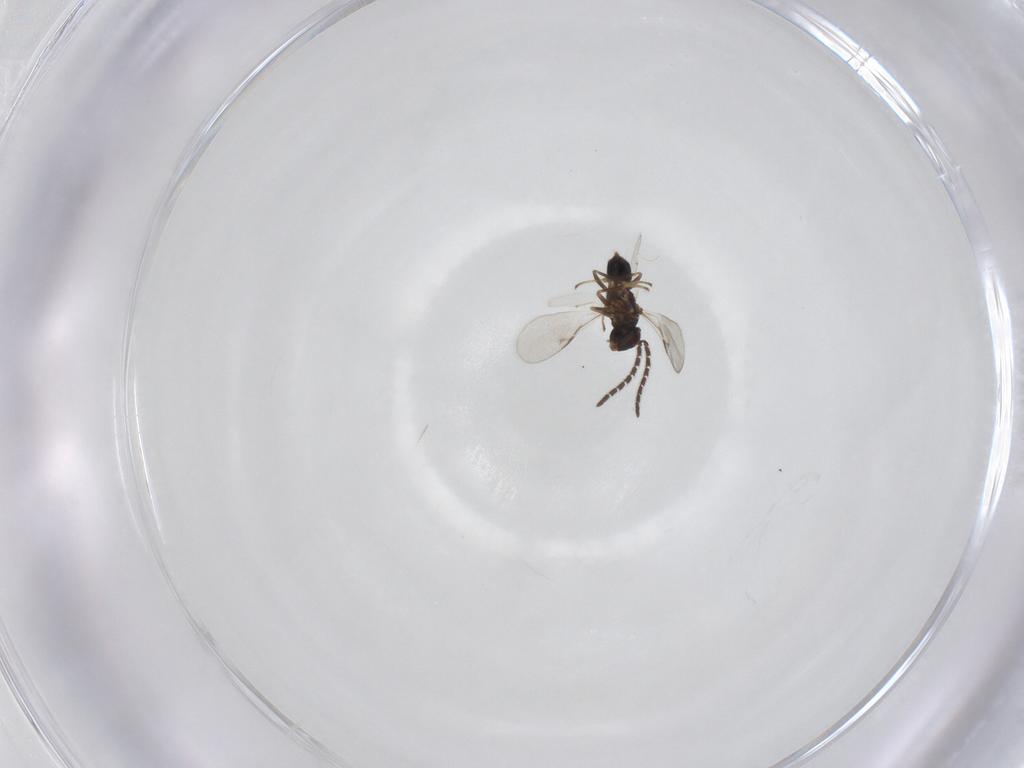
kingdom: Animalia
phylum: Arthropoda
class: Insecta
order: Hymenoptera
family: Encyrtidae
